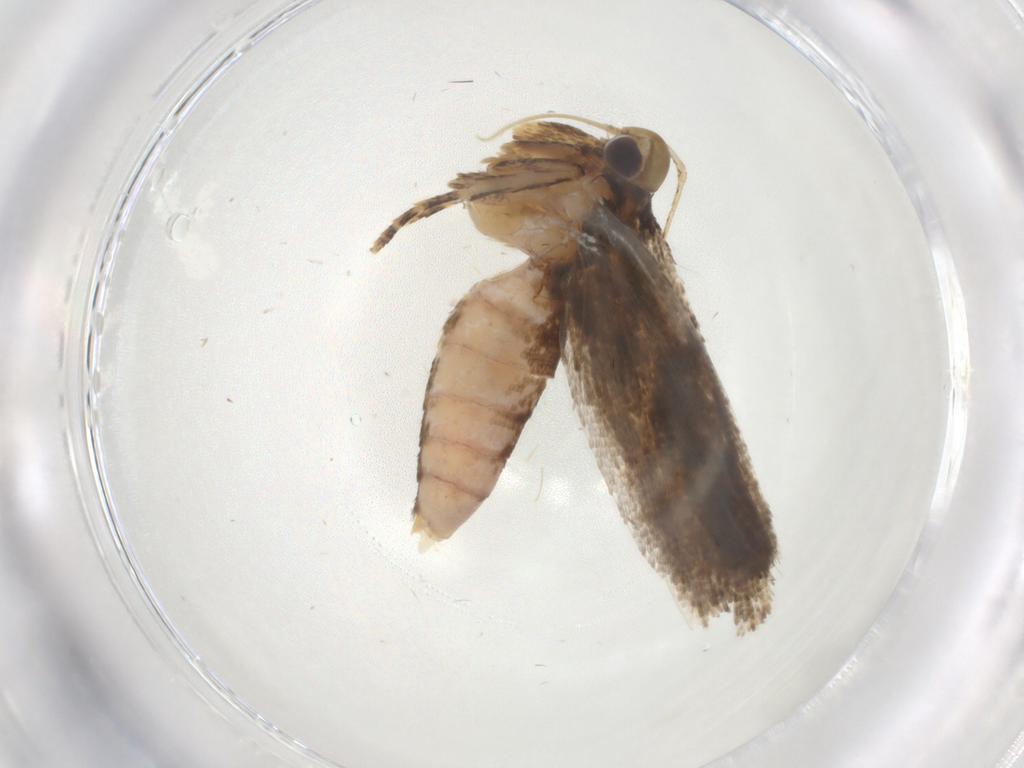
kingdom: Animalia
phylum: Arthropoda
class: Insecta
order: Lepidoptera
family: Gelechiidae
